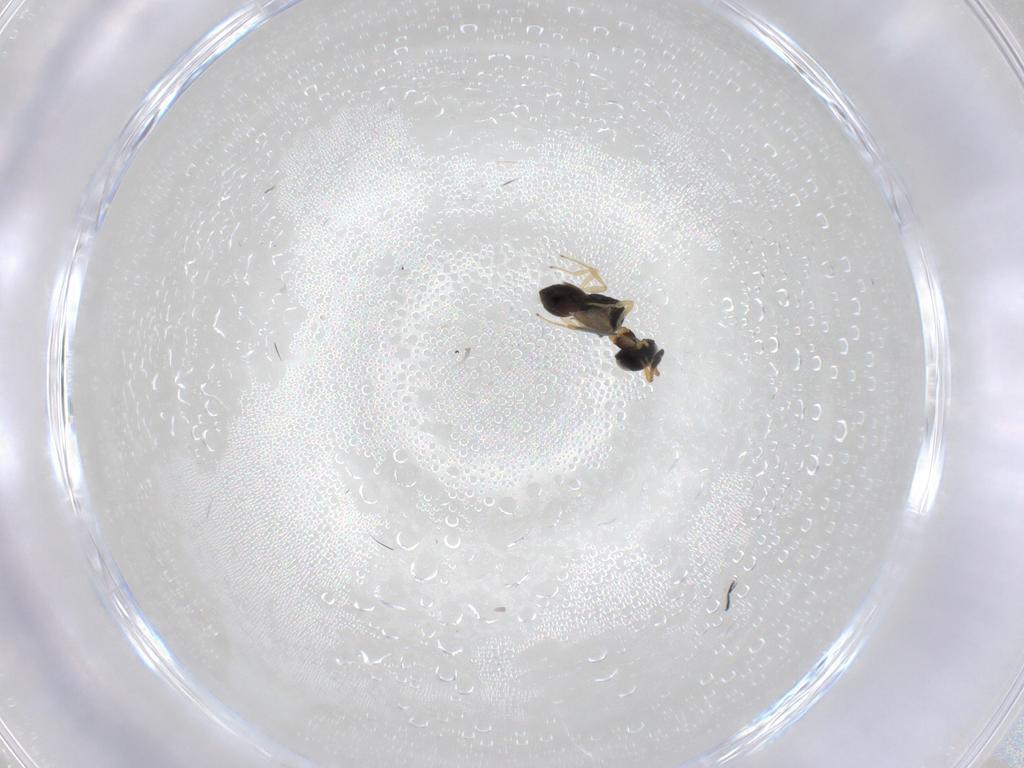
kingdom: Animalia
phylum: Arthropoda
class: Insecta
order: Hymenoptera
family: Scelionidae
